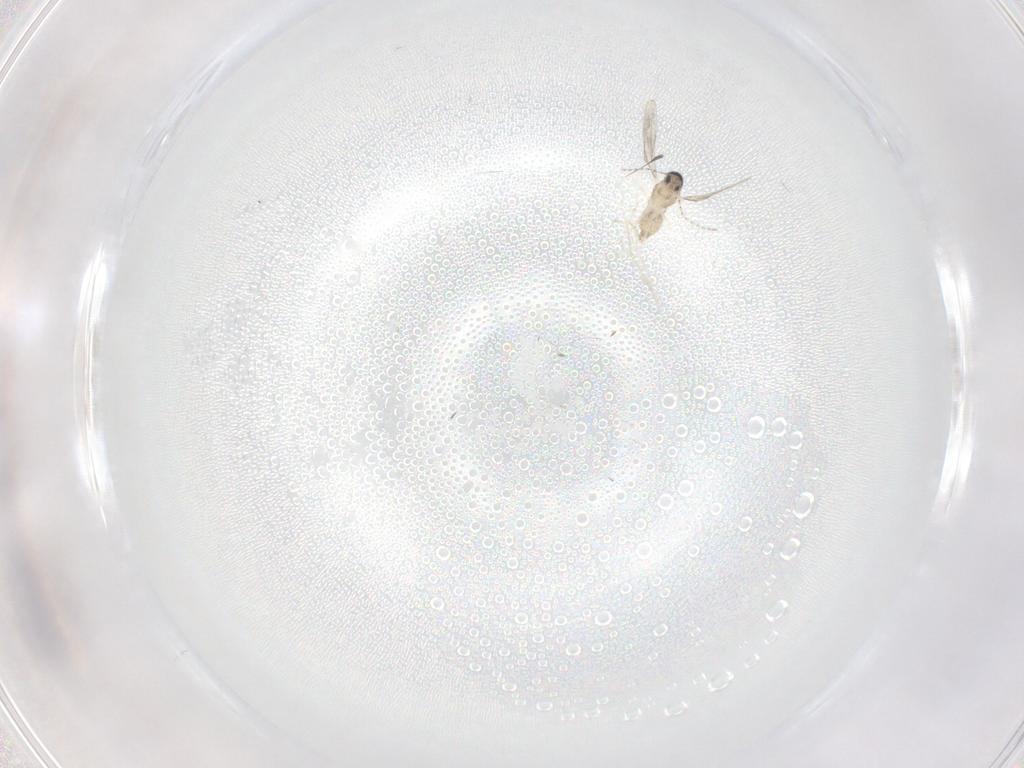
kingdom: Animalia
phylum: Arthropoda
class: Insecta
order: Diptera
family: Cecidomyiidae
